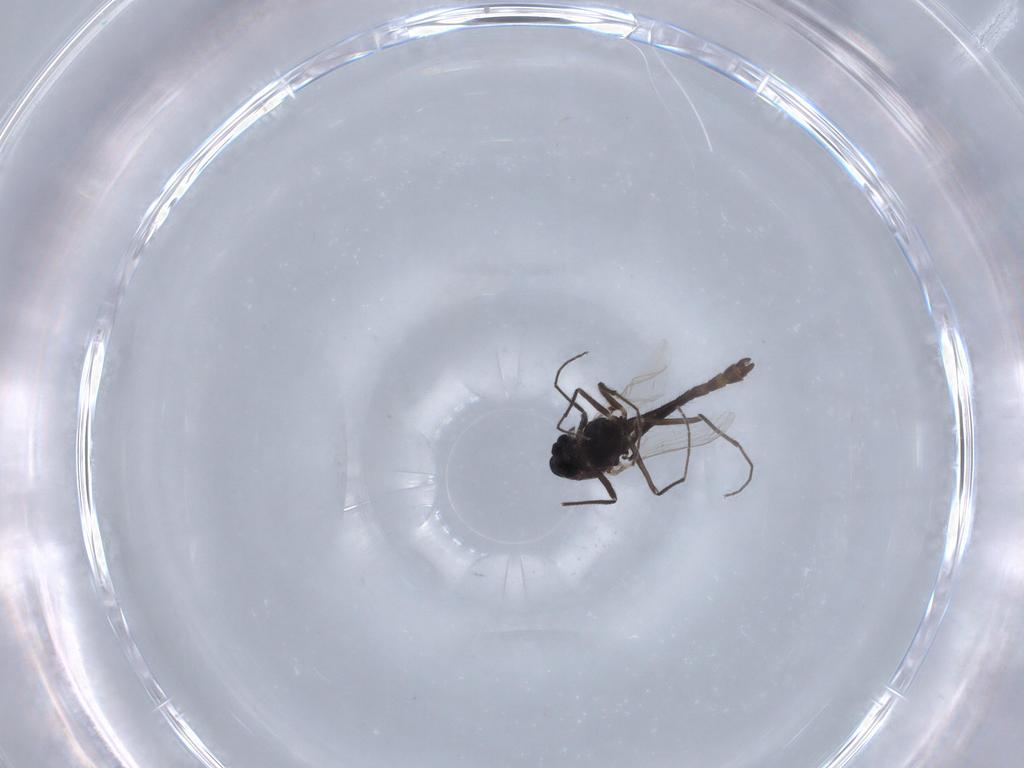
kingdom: Animalia
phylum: Arthropoda
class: Insecta
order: Diptera
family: Chironomidae
